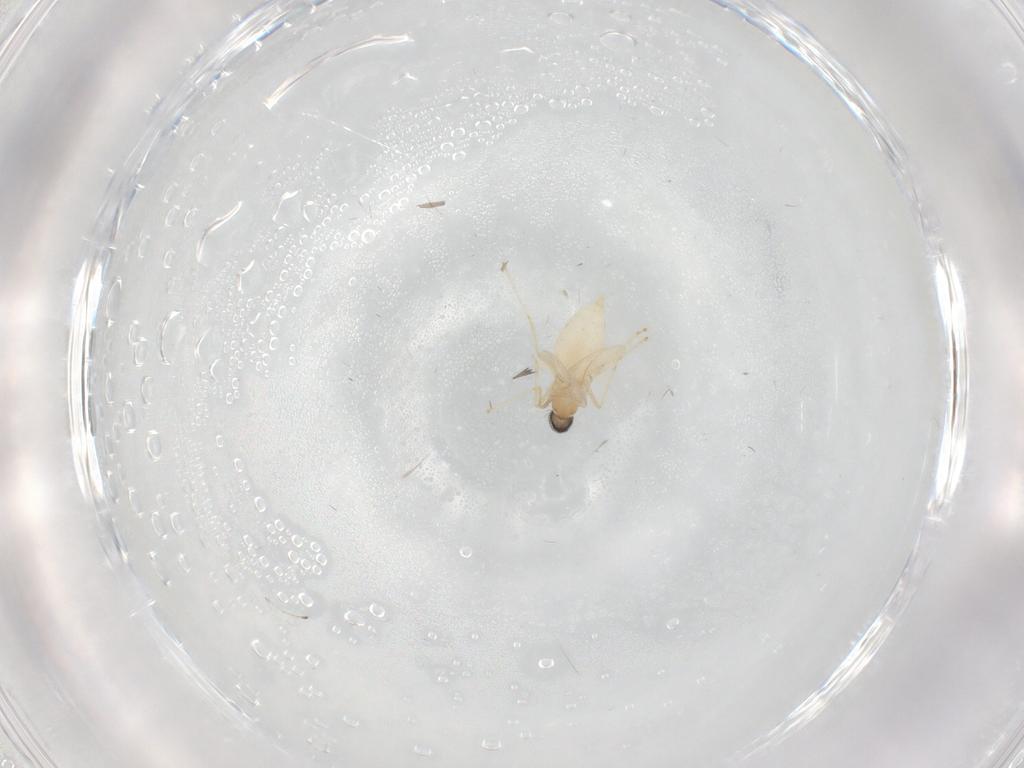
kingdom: Animalia
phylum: Arthropoda
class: Insecta
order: Diptera
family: Cecidomyiidae
